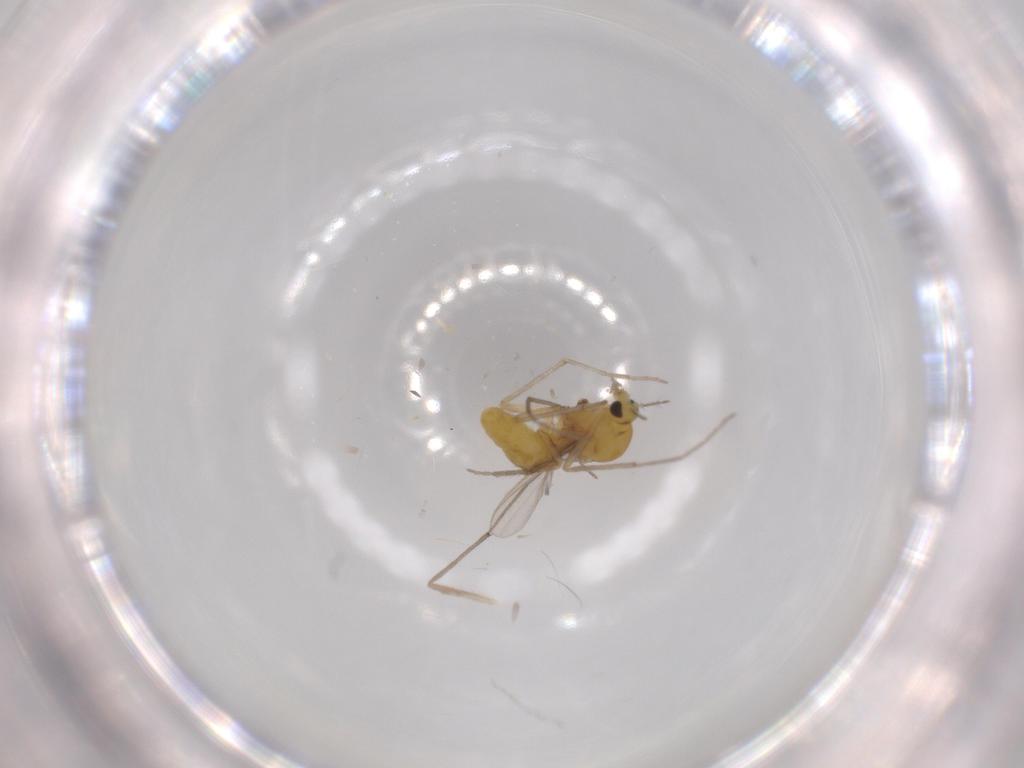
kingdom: Animalia
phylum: Arthropoda
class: Insecta
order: Diptera
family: Chironomidae
